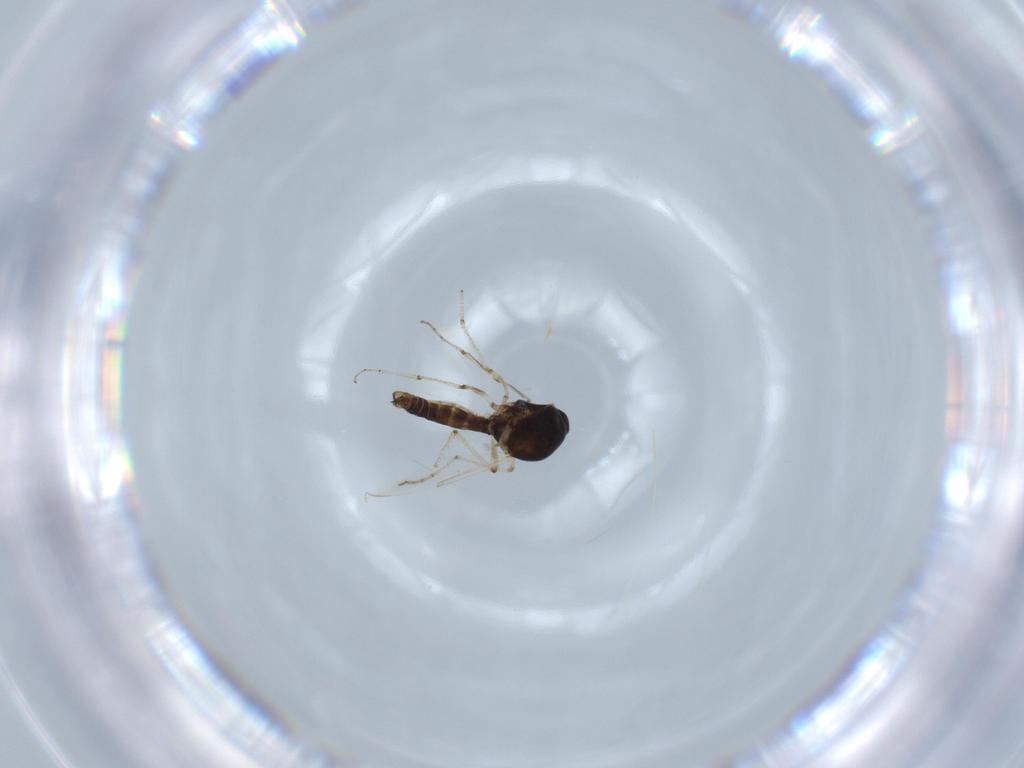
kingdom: Animalia
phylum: Arthropoda
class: Insecta
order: Diptera
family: Ceratopogonidae
